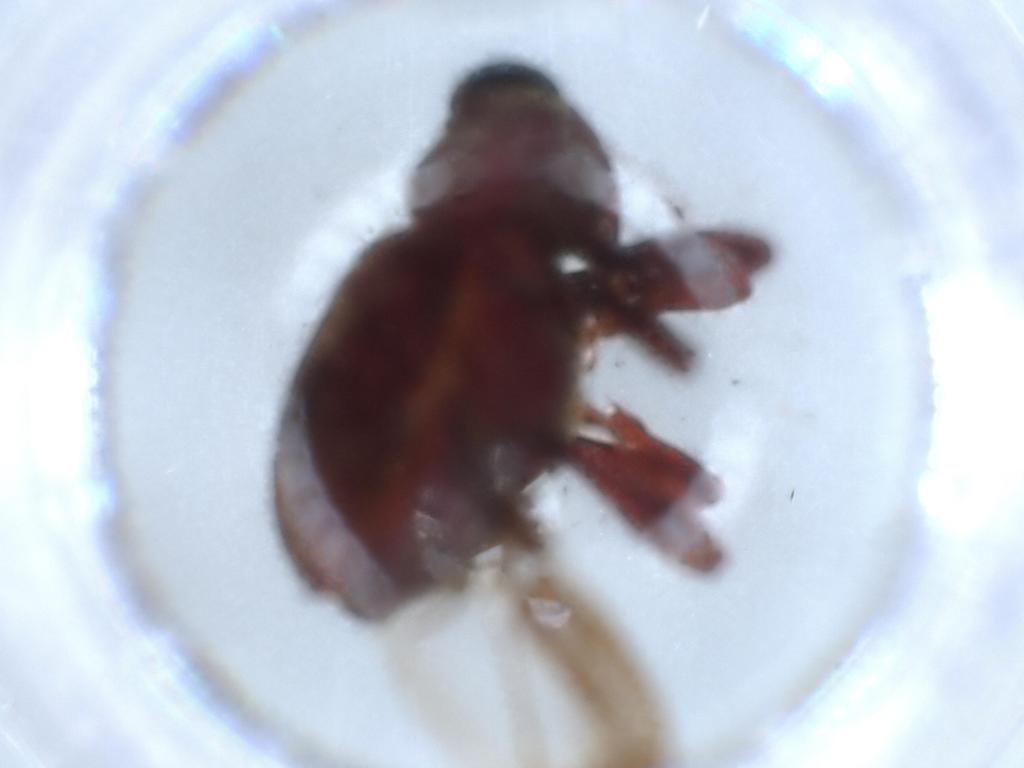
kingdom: Animalia
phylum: Arthropoda
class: Insecta
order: Coleoptera
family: Curculionidae
